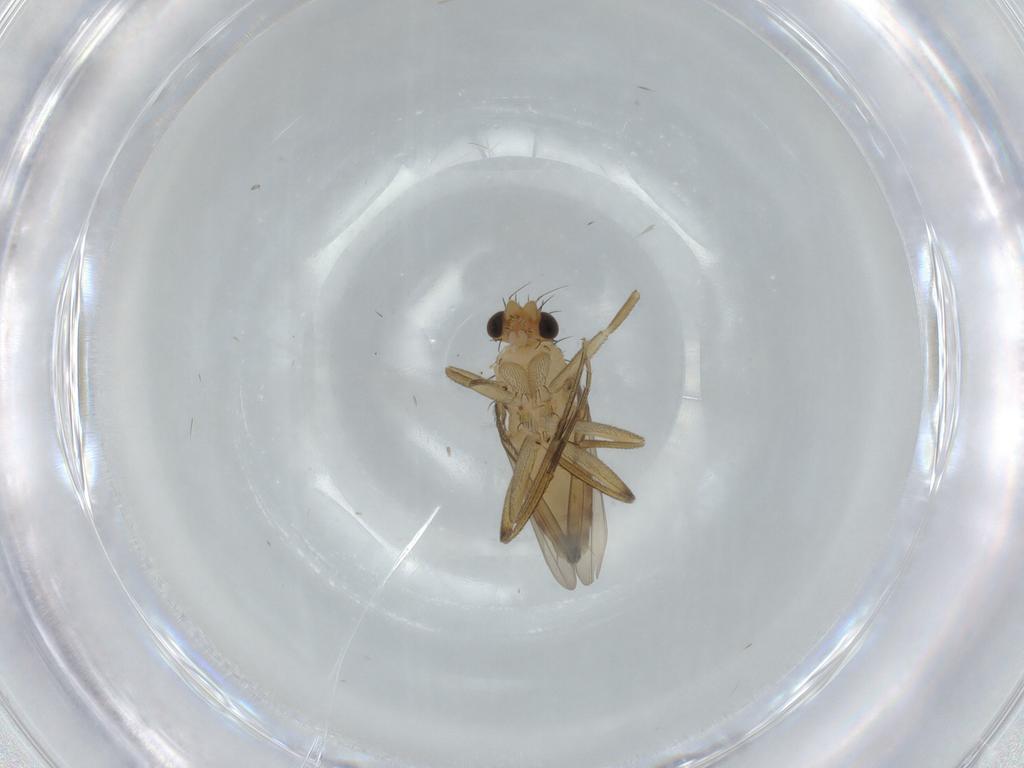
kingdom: Animalia
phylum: Arthropoda
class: Insecta
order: Diptera
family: Phoridae
